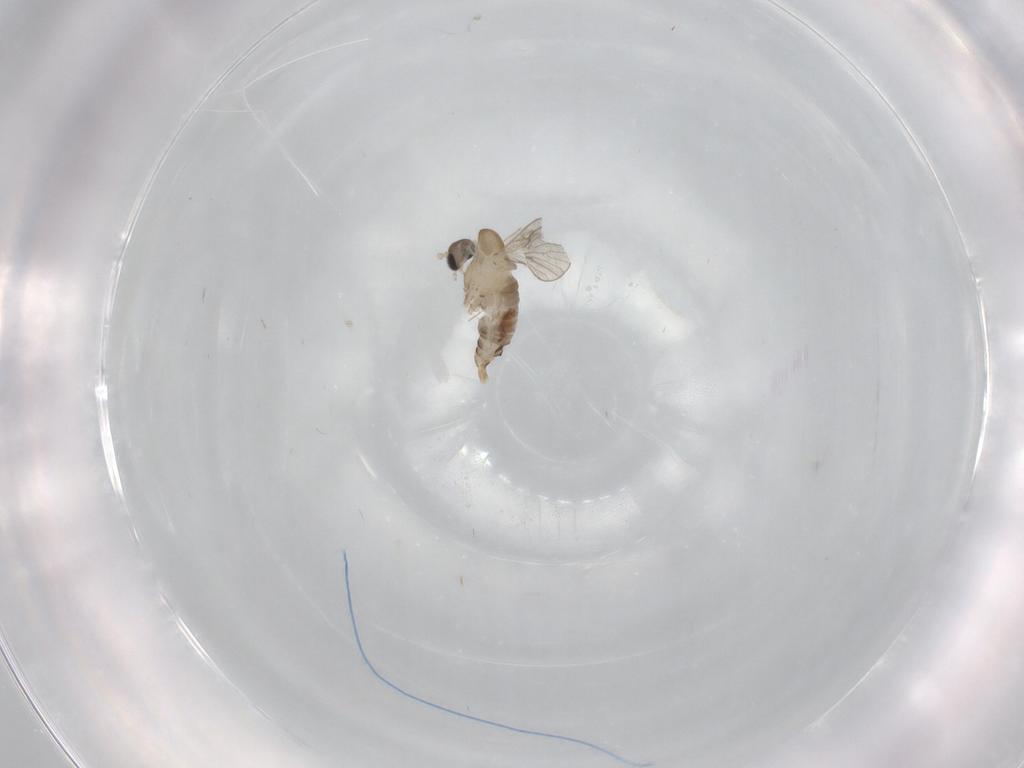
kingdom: Animalia
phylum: Arthropoda
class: Insecta
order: Diptera
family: Psychodidae
